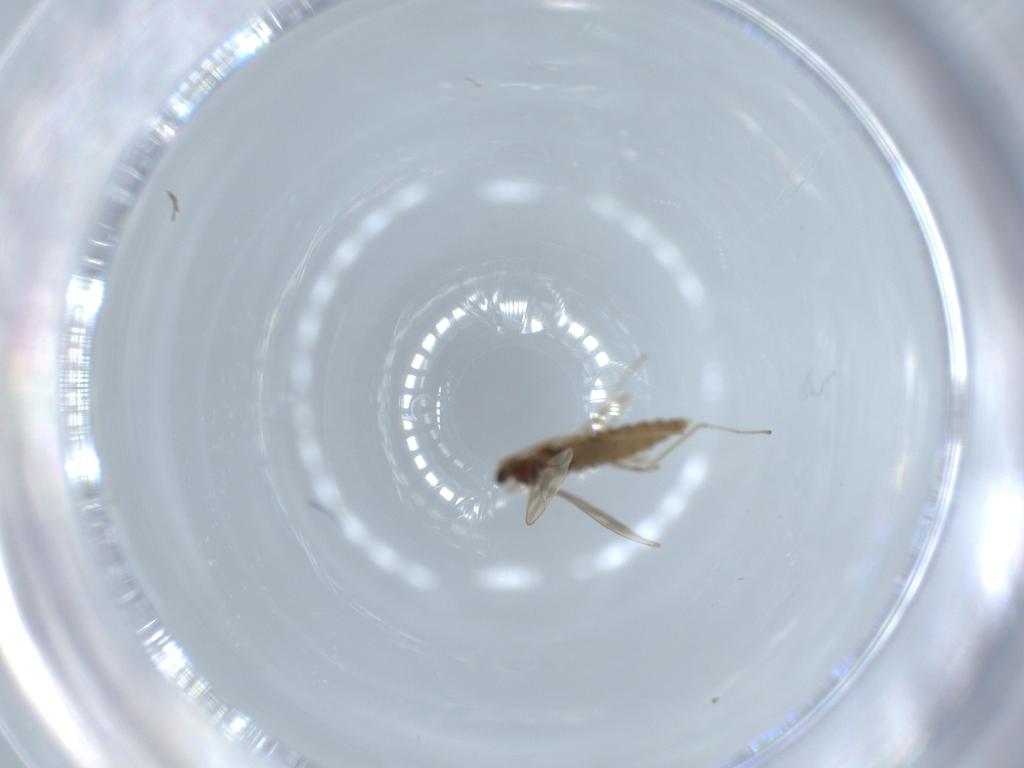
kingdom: Animalia
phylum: Arthropoda
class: Insecta
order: Diptera
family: Cecidomyiidae
